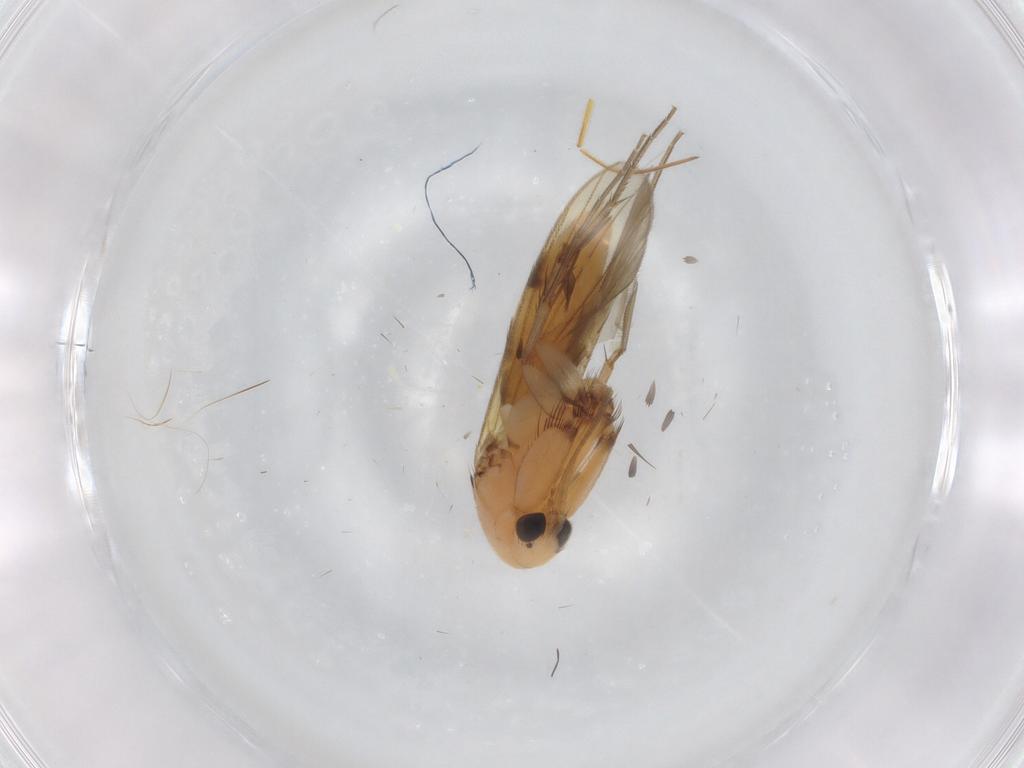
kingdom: Animalia
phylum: Arthropoda
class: Insecta
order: Diptera
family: Mycetophilidae
